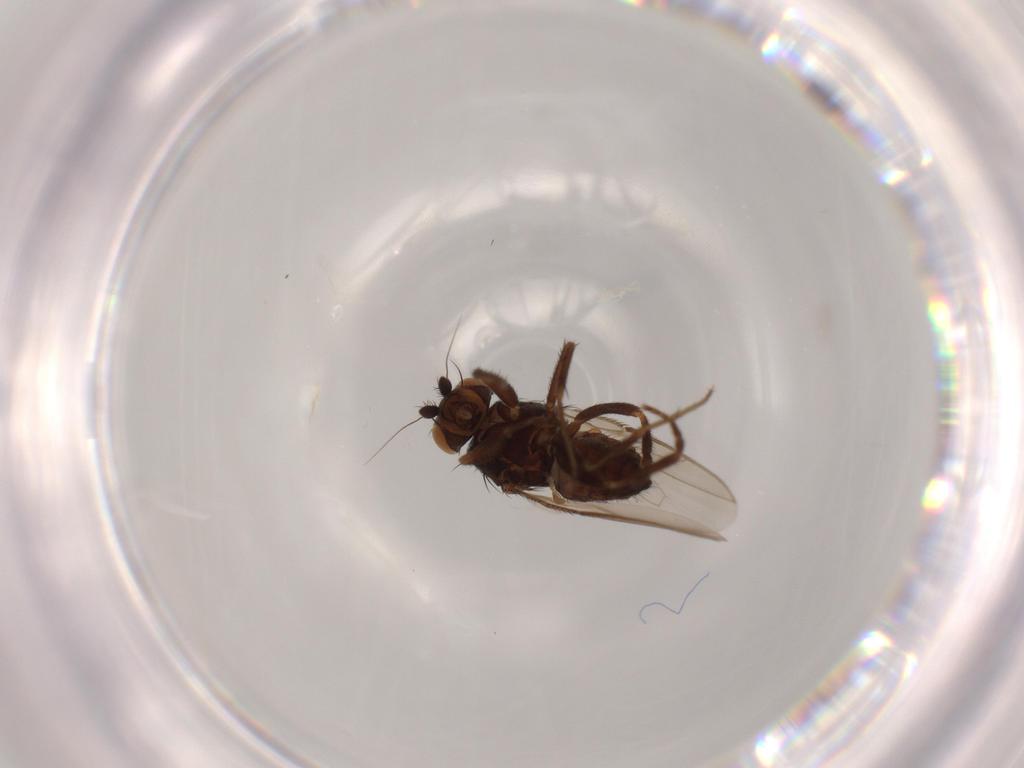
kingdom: Animalia
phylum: Arthropoda
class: Insecta
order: Diptera
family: Sphaeroceridae
